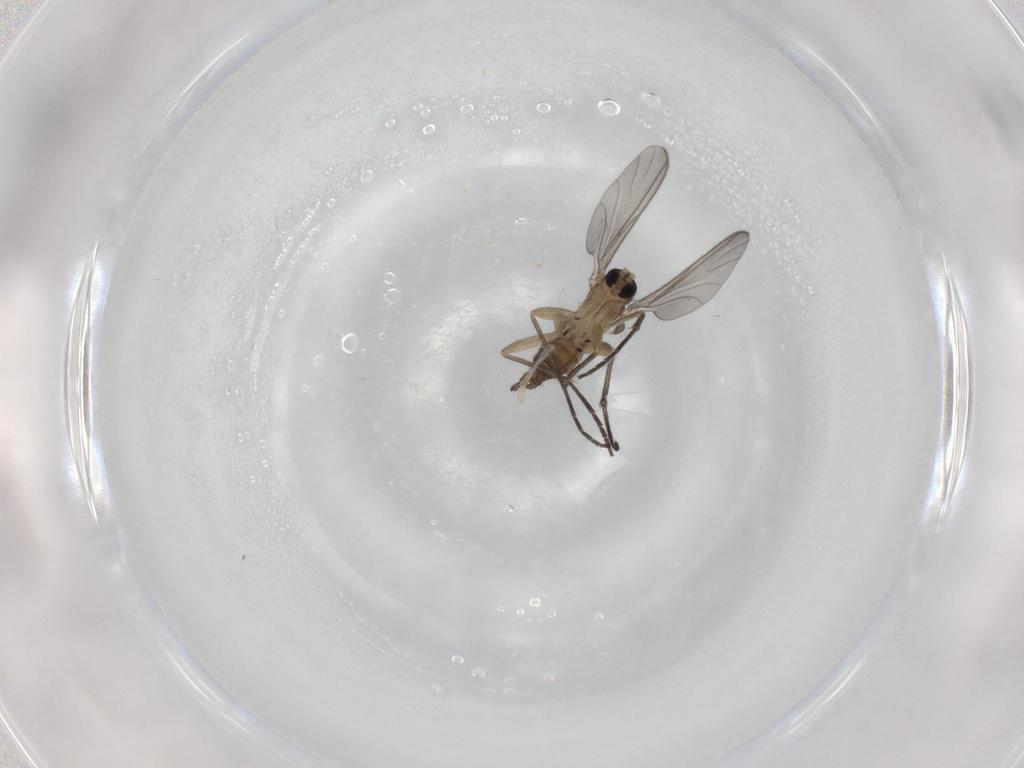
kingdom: Animalia
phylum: Arthropoda
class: Insecta
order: Diptera
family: Sciaridae
